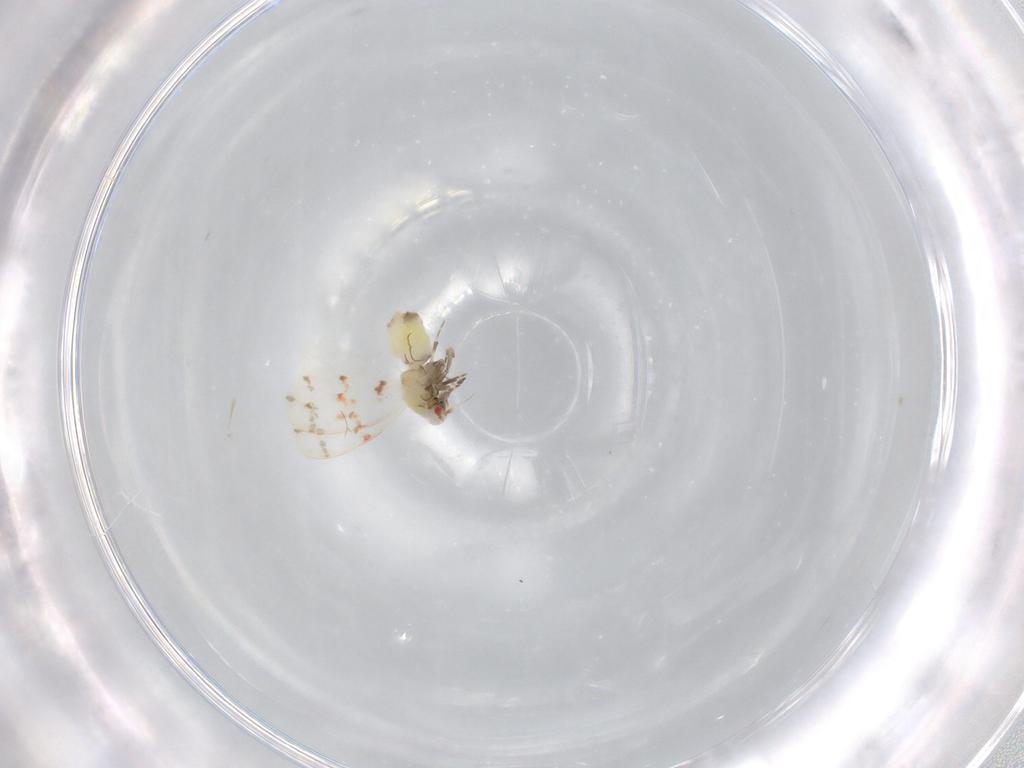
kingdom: Animalia
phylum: Arthropoda
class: Insecta
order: Hemiptera
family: Aleyrodidae
